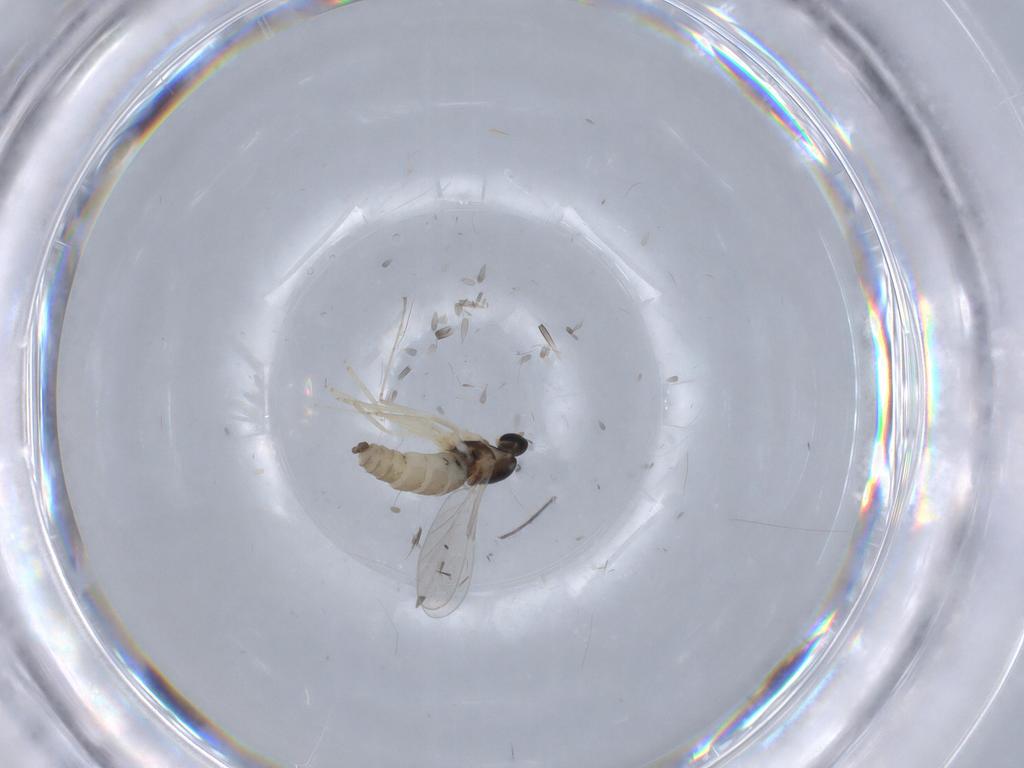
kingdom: Animalia
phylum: Arthropoda
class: Insecta
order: Diptera
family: Cecidomyiidae
